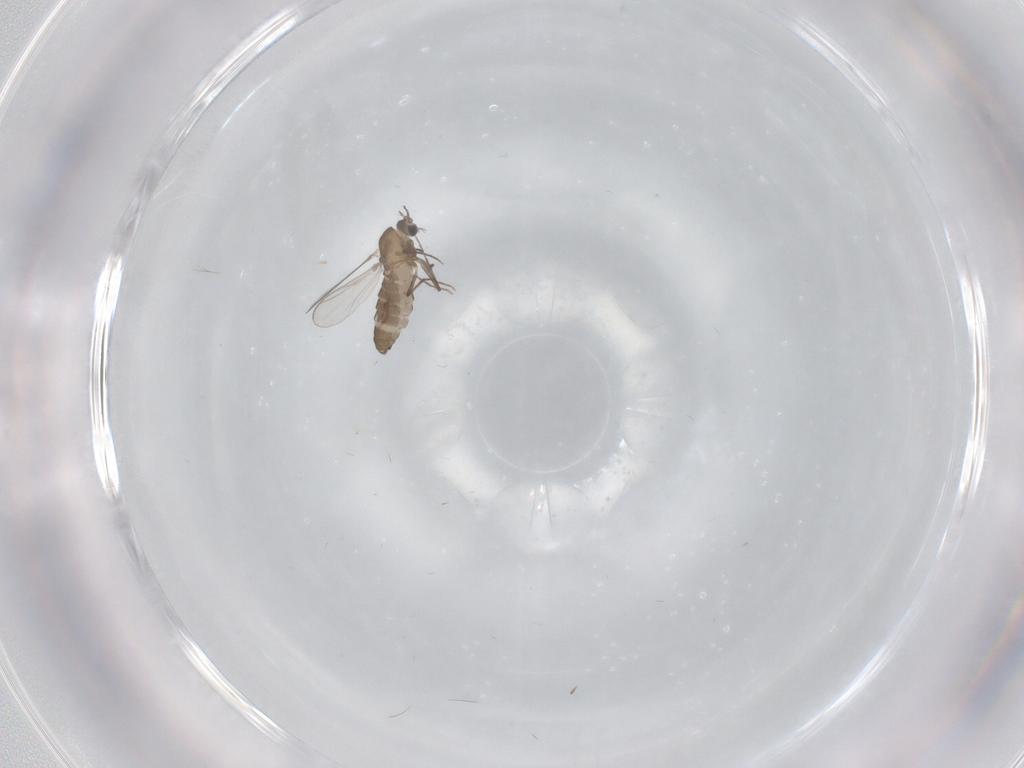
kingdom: Animalia
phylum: Arthropoda
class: Insecta
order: Diptera
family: Chironomidae
